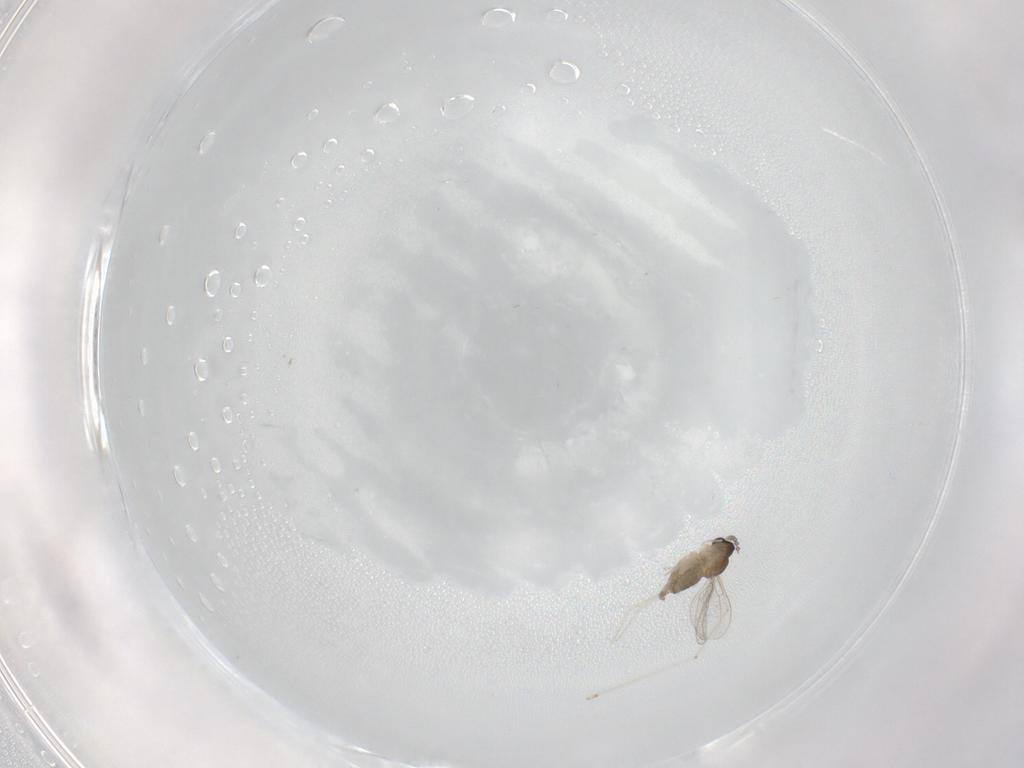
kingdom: Animalia
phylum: Arthropoda
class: Insecta
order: Diptera
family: Cecidomyiidae
